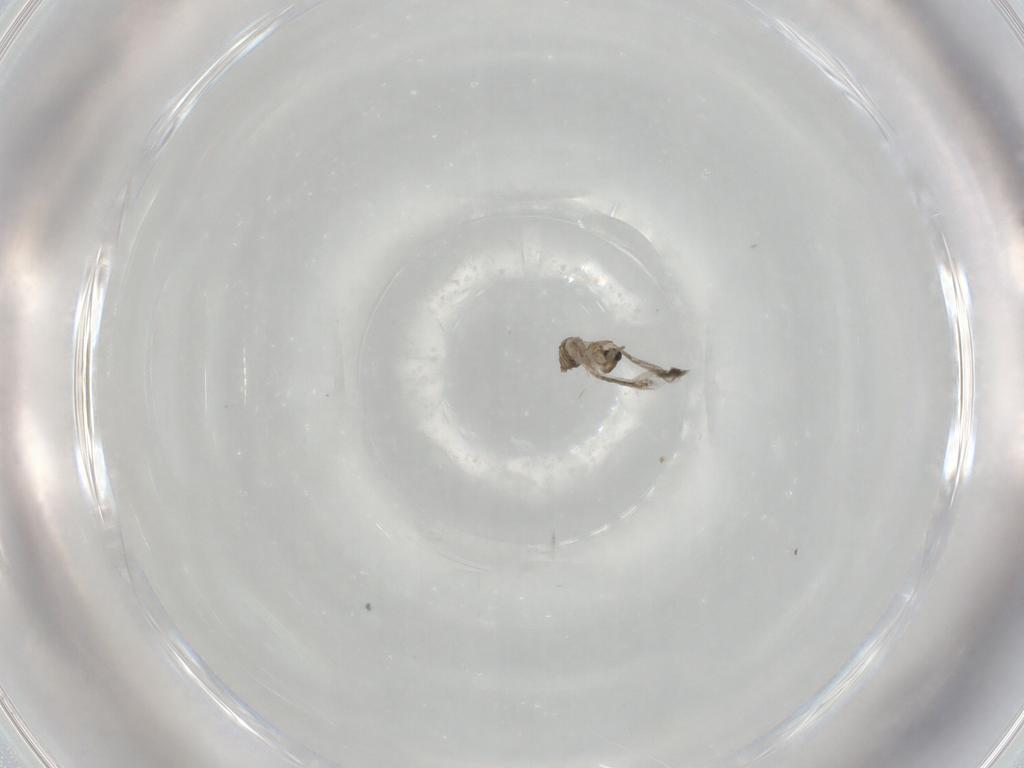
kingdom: Animalia
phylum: Arthropoda
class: Insecta
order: Diptera
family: Cecidomyiidae
